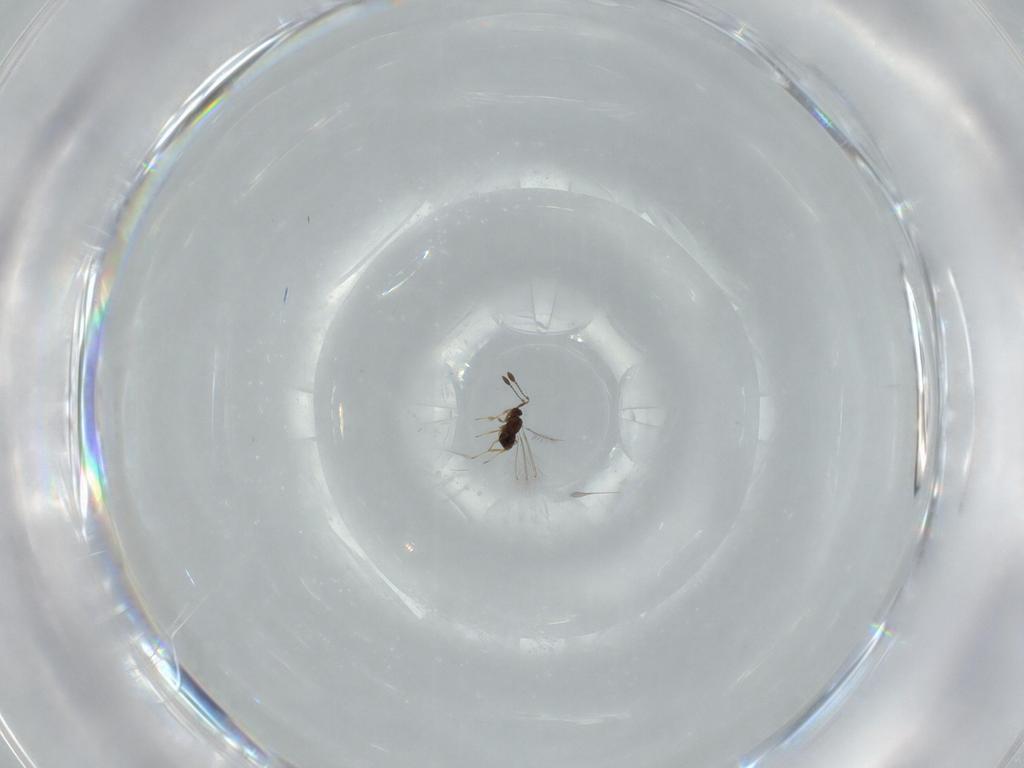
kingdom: Animalia
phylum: Arthropoda
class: Insecta
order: Hymenoptera
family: Mymaridae
